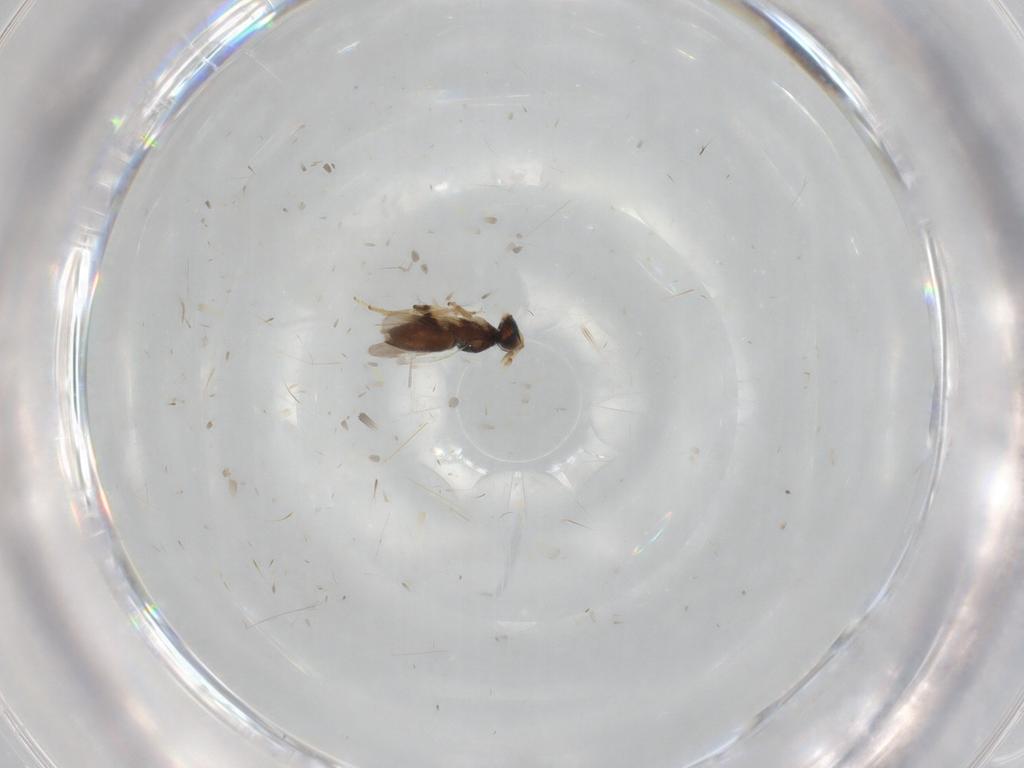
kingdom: Animalia
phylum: Arthropoda
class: Insecta
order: Hymenoptera
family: Encyrtidae
